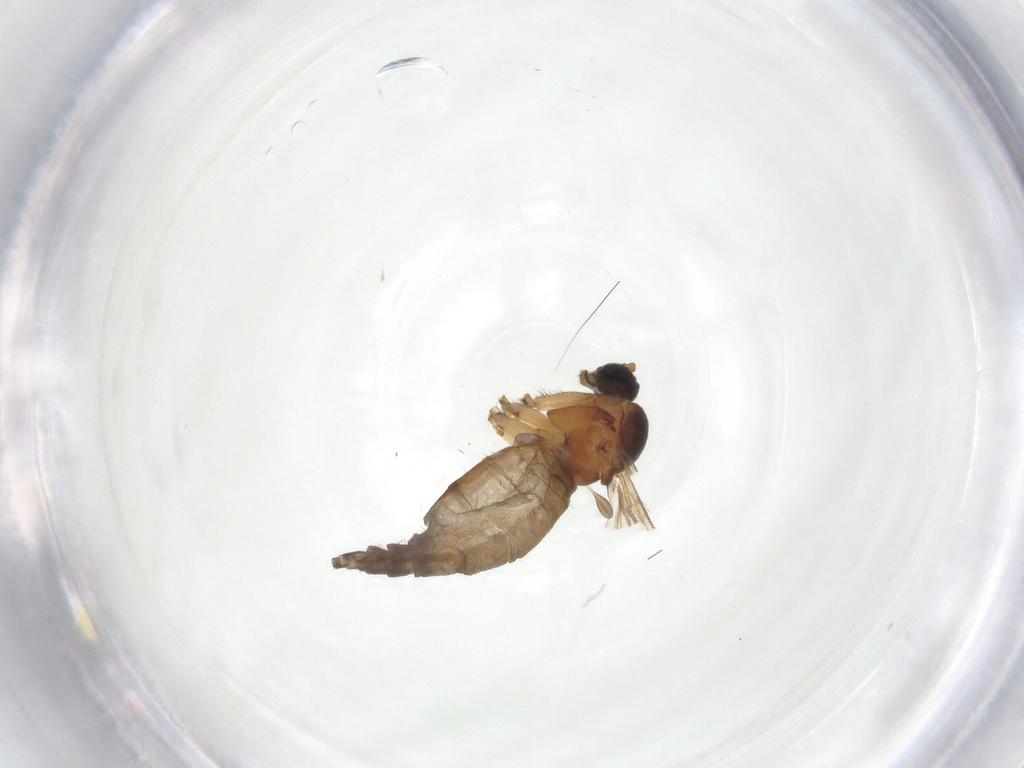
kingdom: Animalia
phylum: Arthropoda
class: Insecta
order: Diptera
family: Sciaridae
